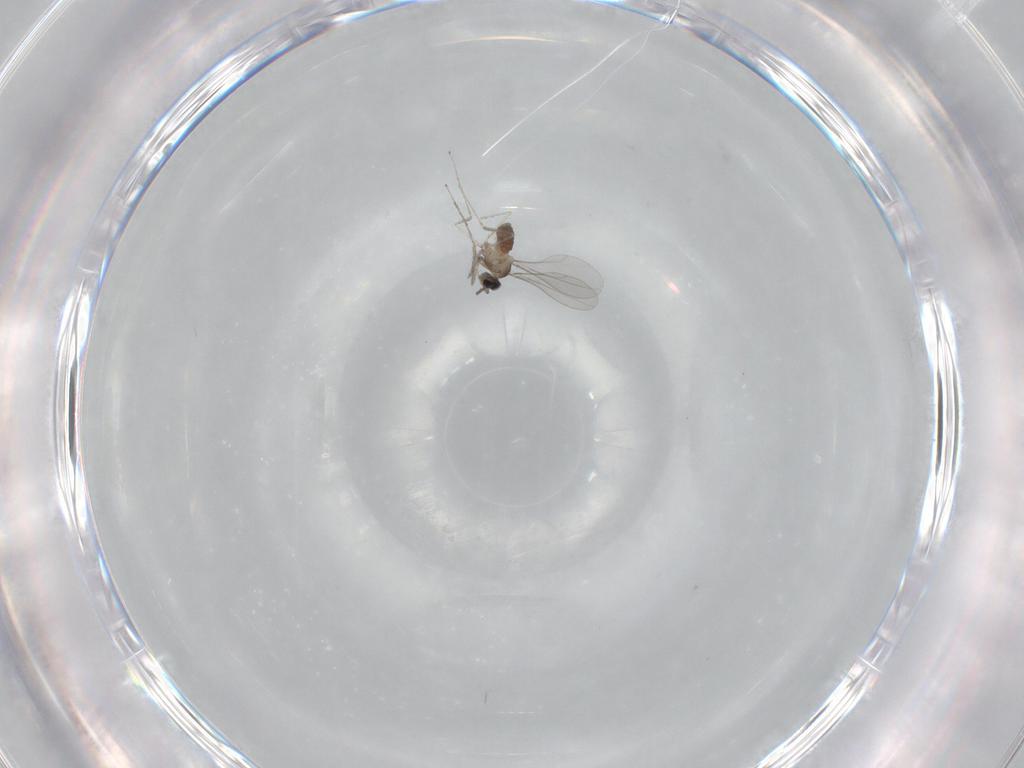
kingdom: Animalia
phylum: Arthropoda
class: Insecta
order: Diptera
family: Cecidomyiidae
